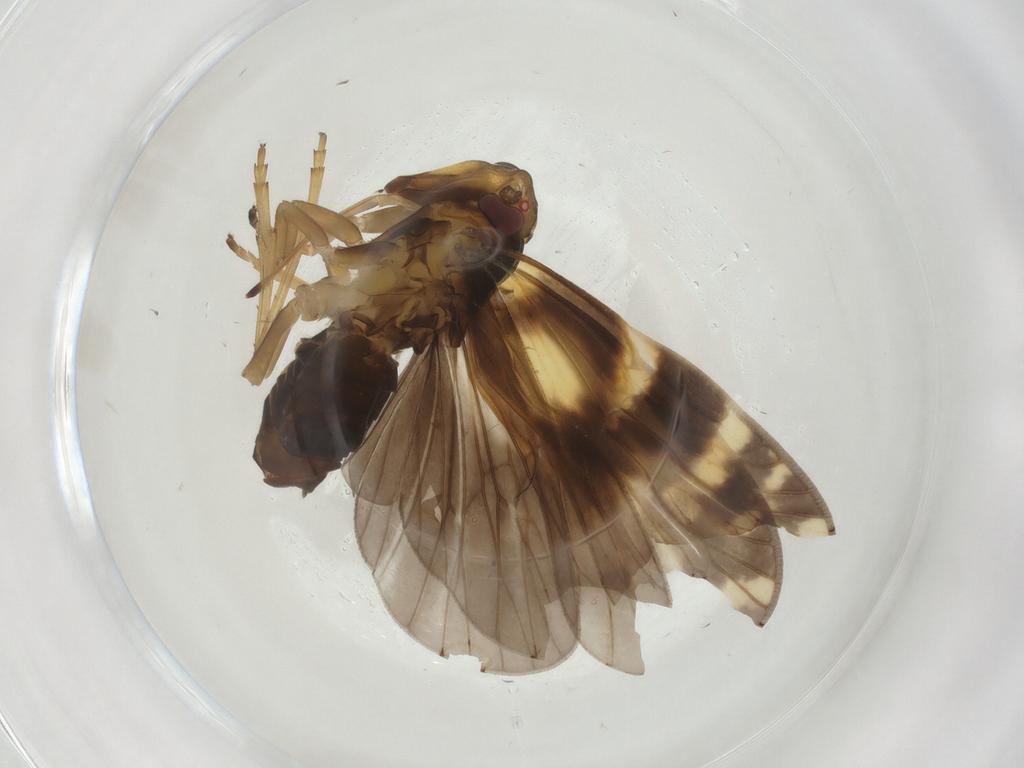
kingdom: Animalia
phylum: Arthropoda
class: Insecta
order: Hemiptera
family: Cixiidae
